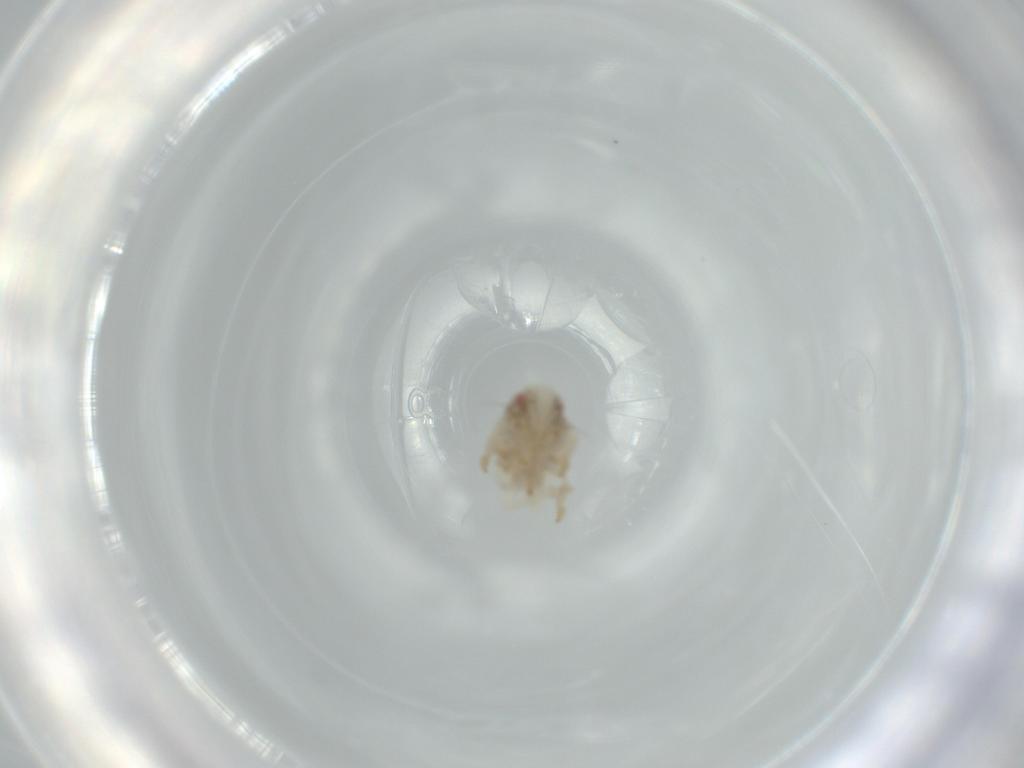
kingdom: Animalia
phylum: Arthropoda
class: Insecta
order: Hemiptera
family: Acanaloniidae
